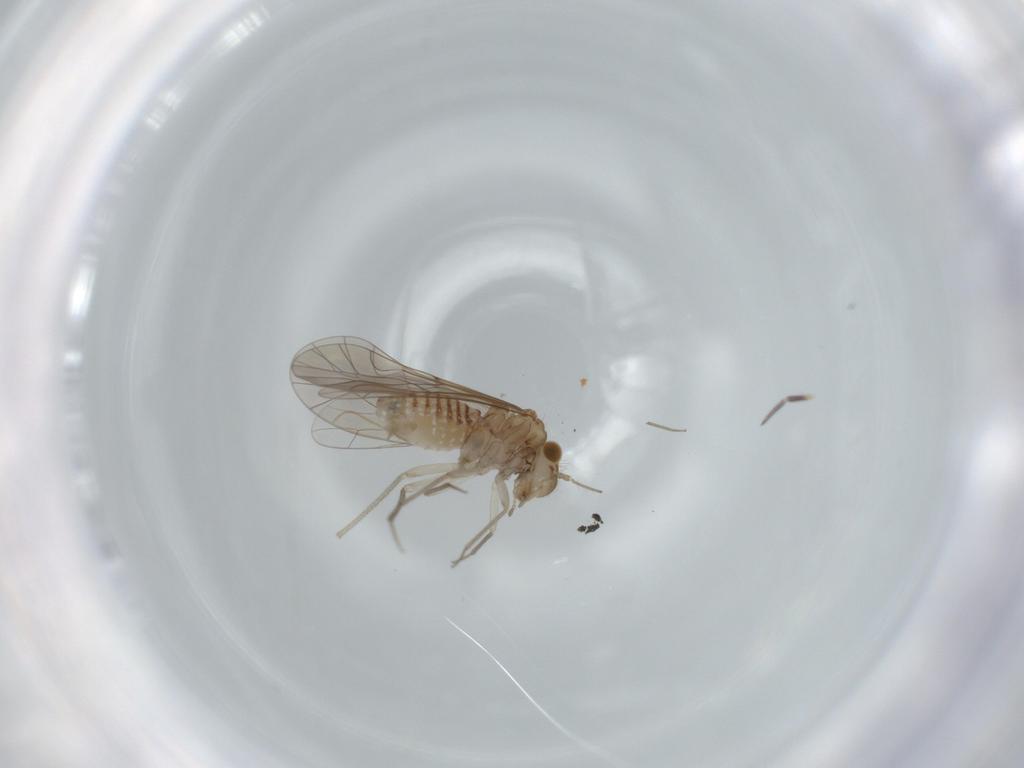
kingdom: Animalia
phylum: Arthropoda
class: Insecta
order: Psocodea
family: Lachesillidae
